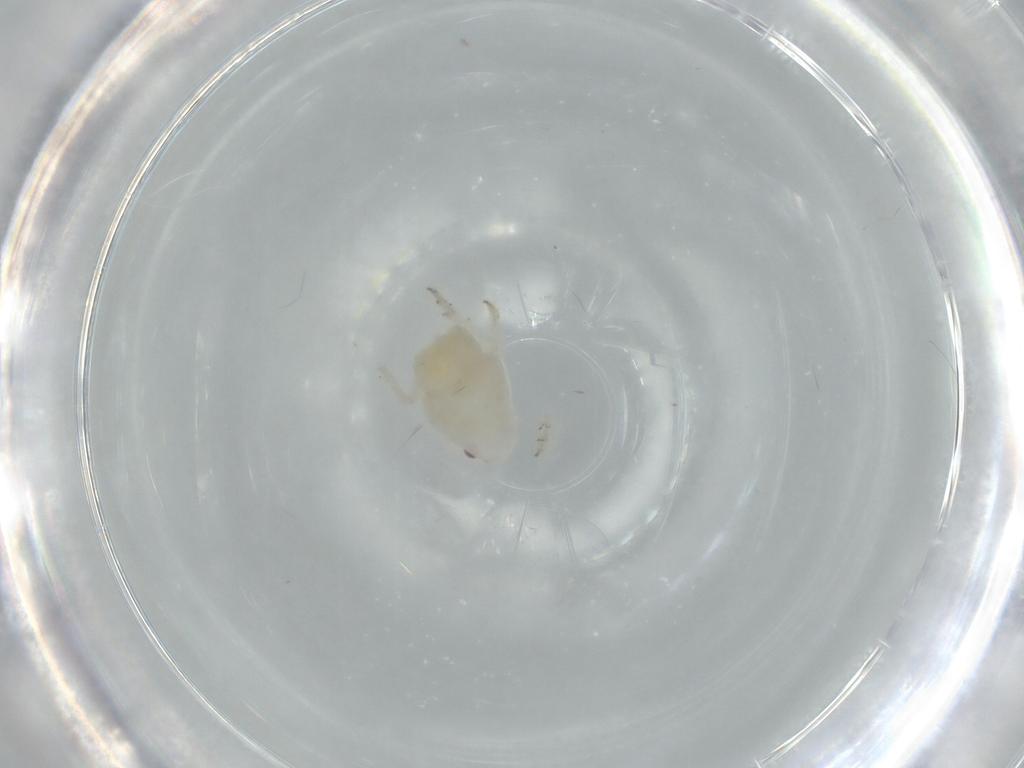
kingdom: Animalia
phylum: Arthropoda
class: Insecta
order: Hemiptera
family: Flatidae
